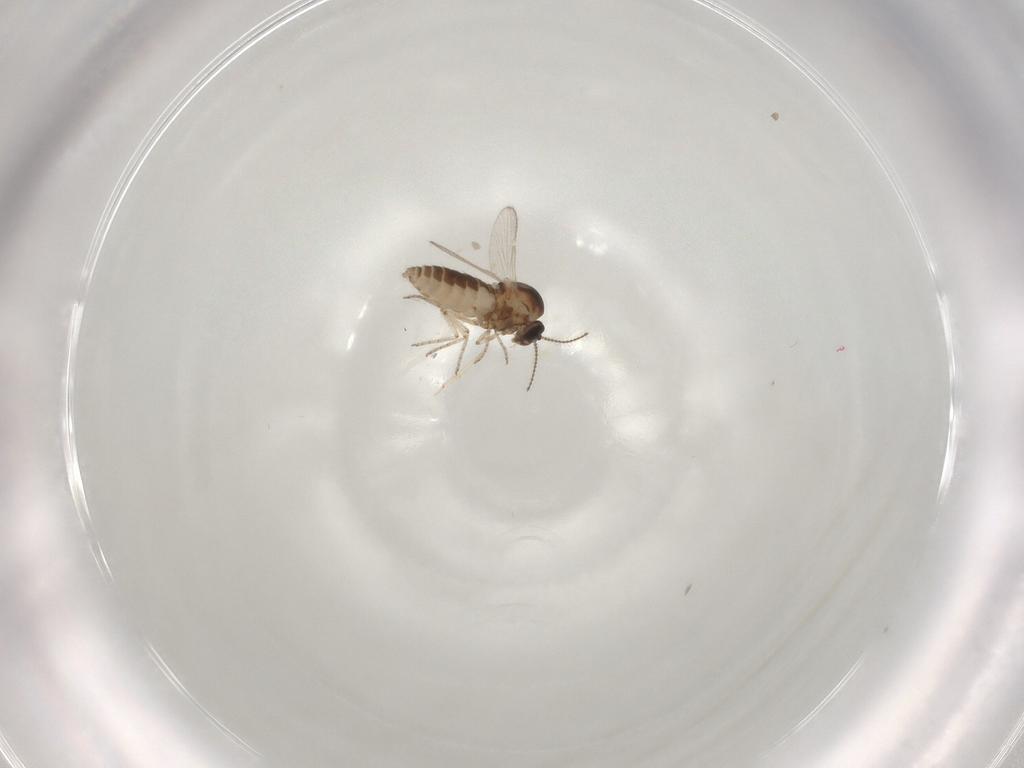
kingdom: Animalia
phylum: Arthropoda
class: Insecta
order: Diptera
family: Ceratopogonidae
